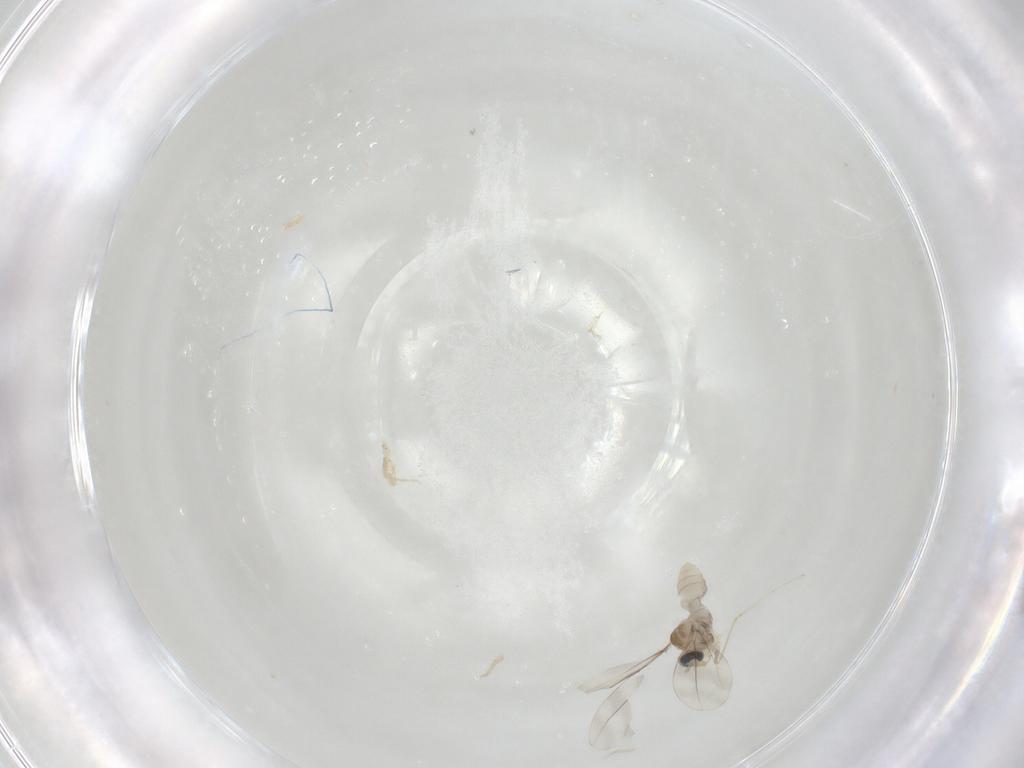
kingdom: Animalia
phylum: Arthropoda
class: Insecta
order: Diptera
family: Cecidomyiidae
